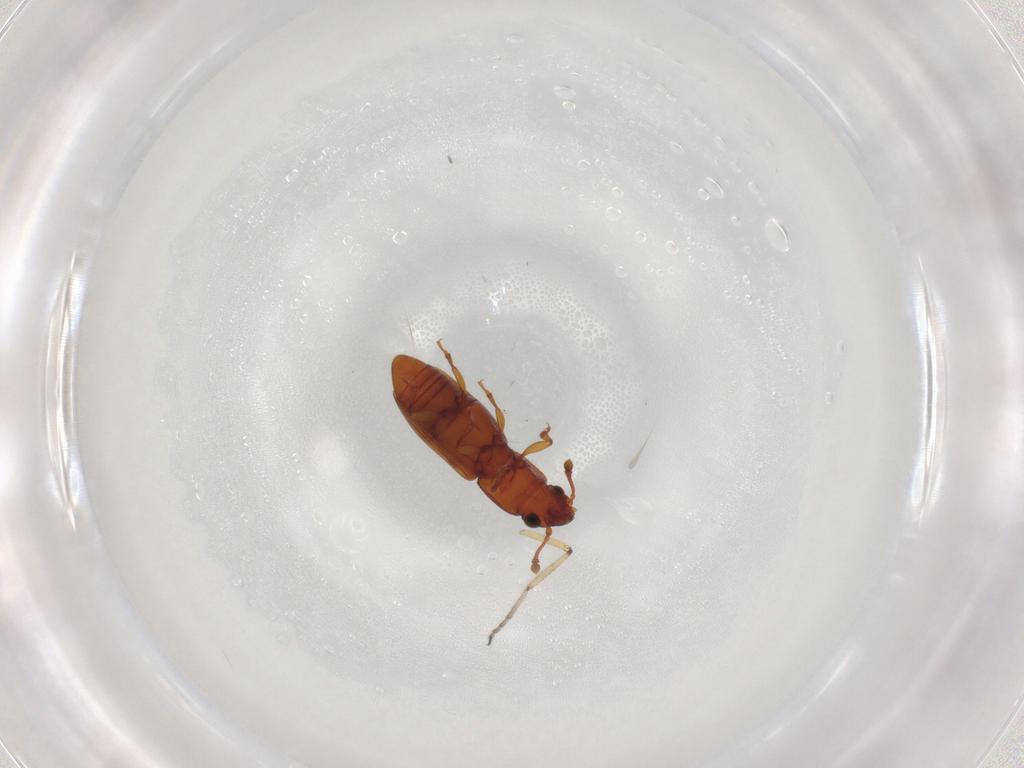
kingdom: Animalia
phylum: Arthropoda
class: Insecta
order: Coleoptera
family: Monotomidae
